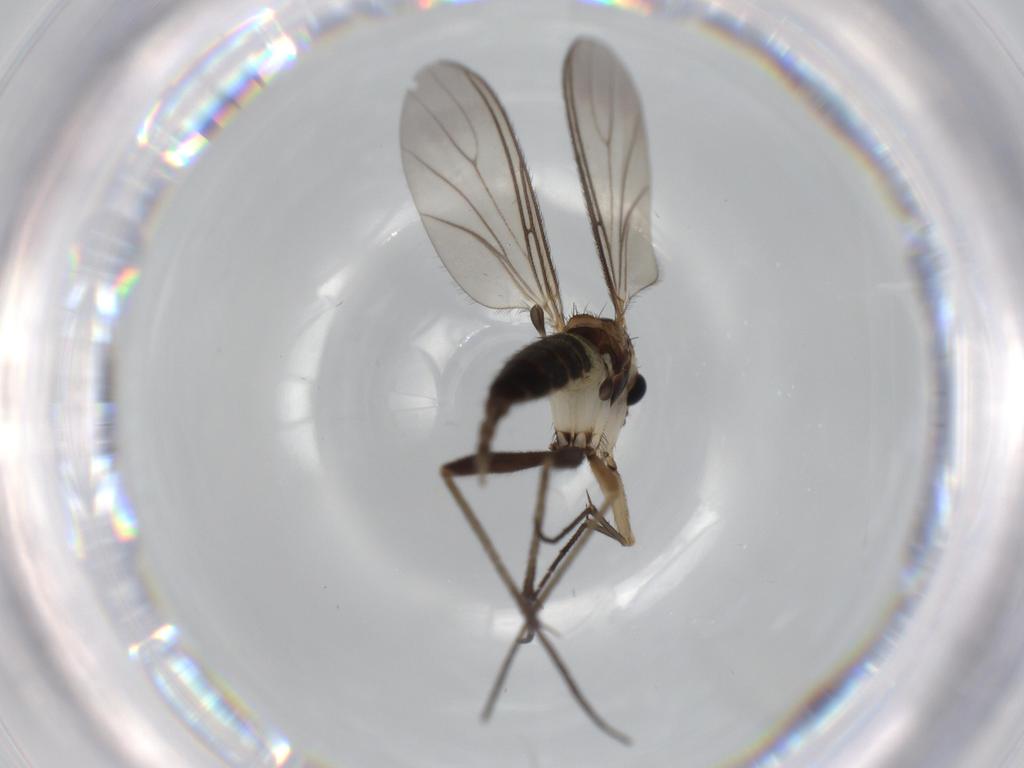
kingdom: Animalia
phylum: Arthropoda
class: Insecta
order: Diptera
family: Sciaridae
